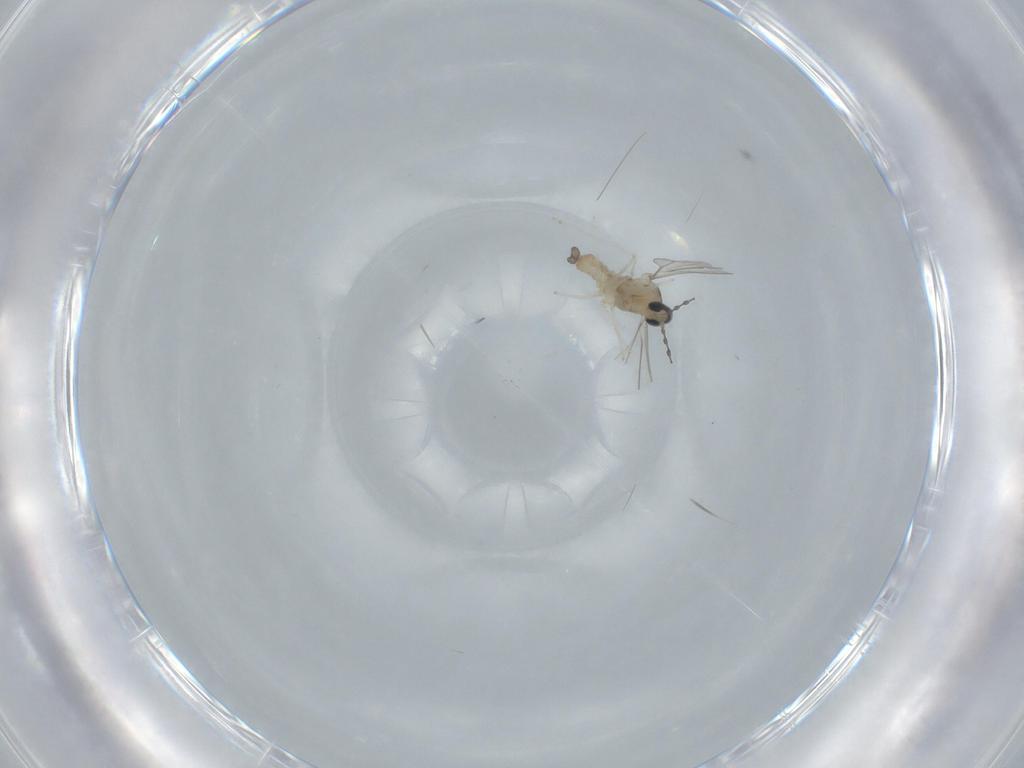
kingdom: Animalia
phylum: Arthropoda
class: Insecta
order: Diptera
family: Cecidomyiidae
